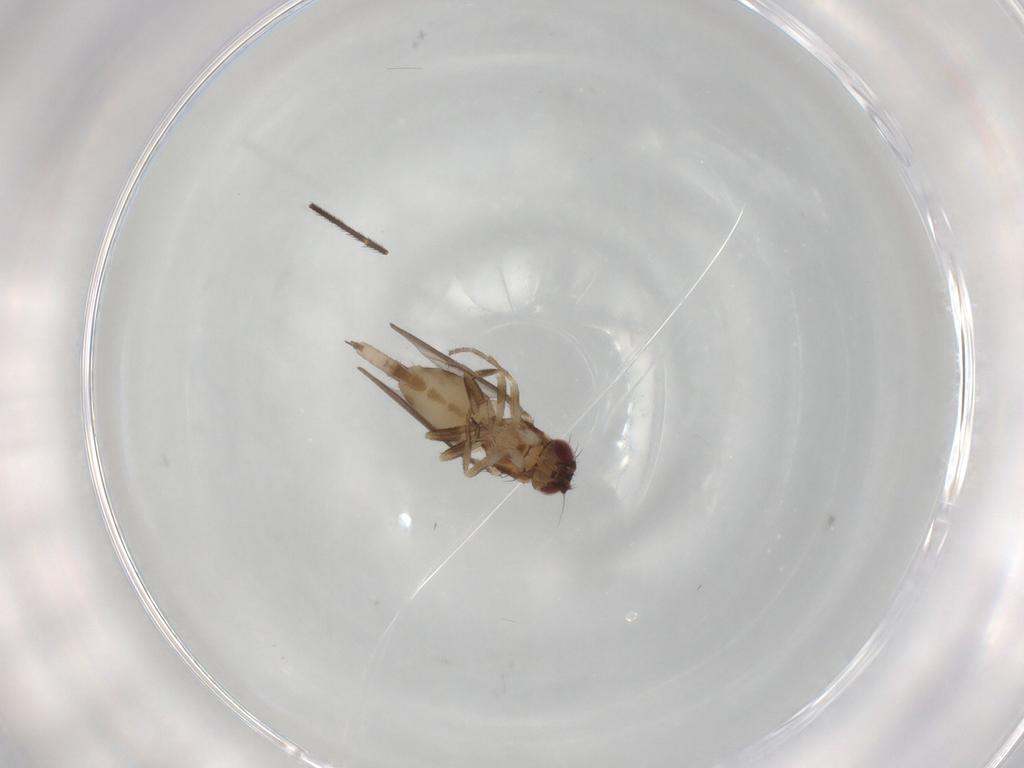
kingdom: Animalia
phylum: Arthropoda
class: Insecta
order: Diptera
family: Milichiidae
